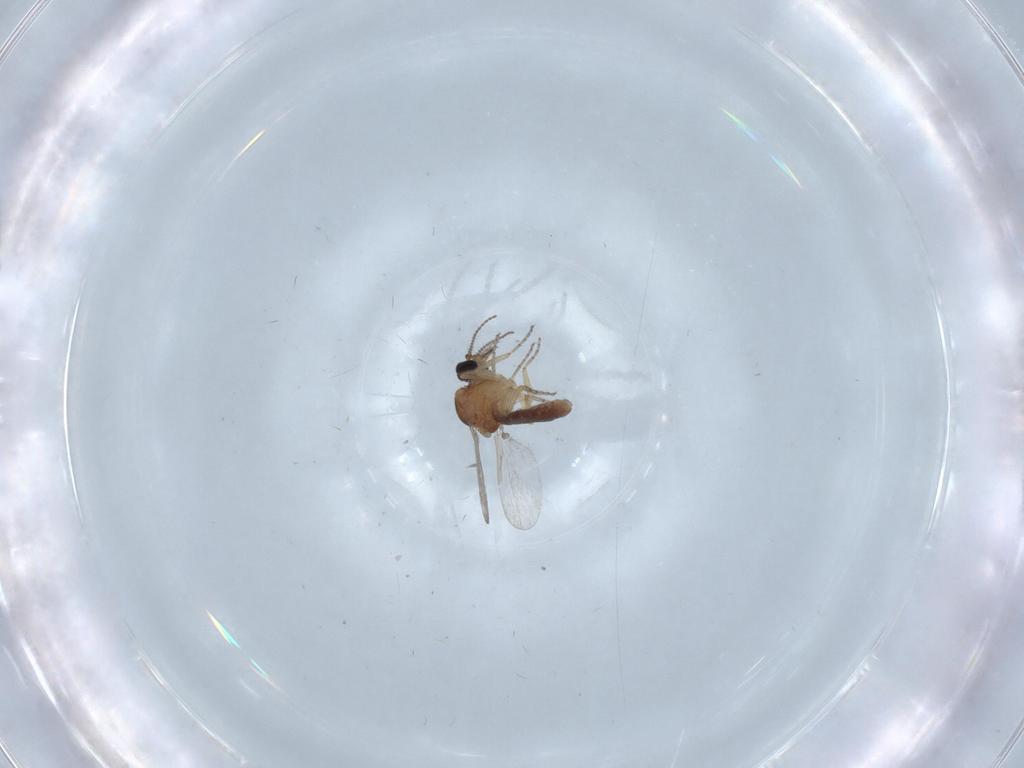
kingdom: Animalia
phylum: Arthropoda
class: Insecta
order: Diptera
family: Ceratopogonidae
